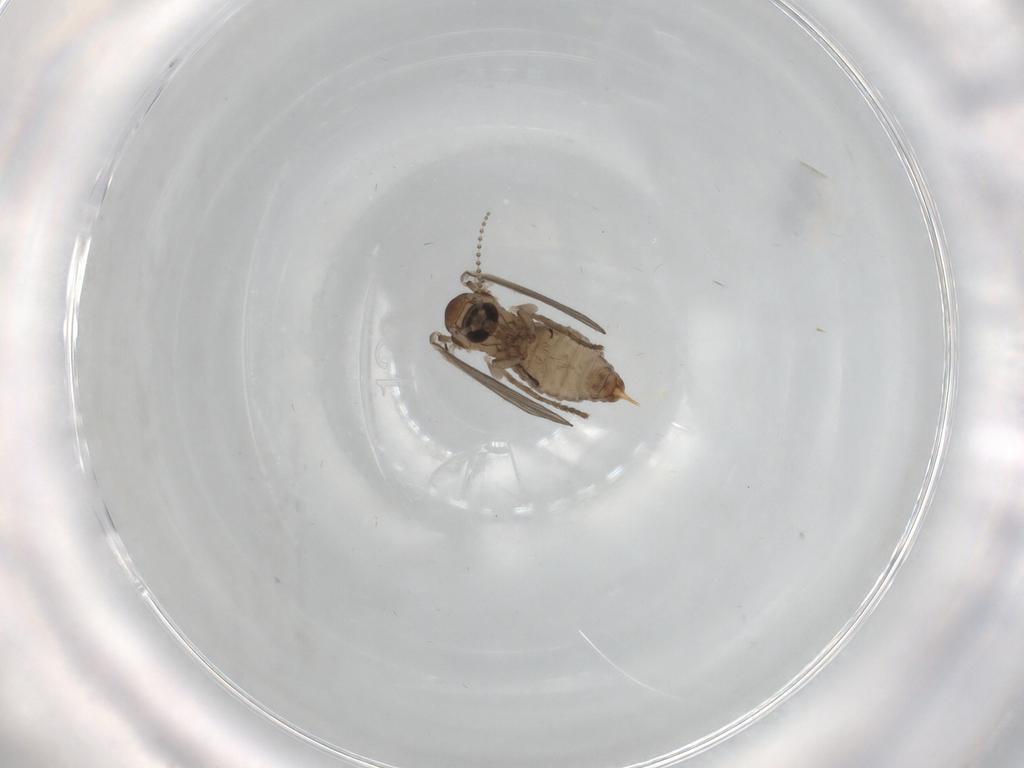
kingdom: Animalia
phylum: Arthropoda
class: Insecta
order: Diptera
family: Psychodidae
